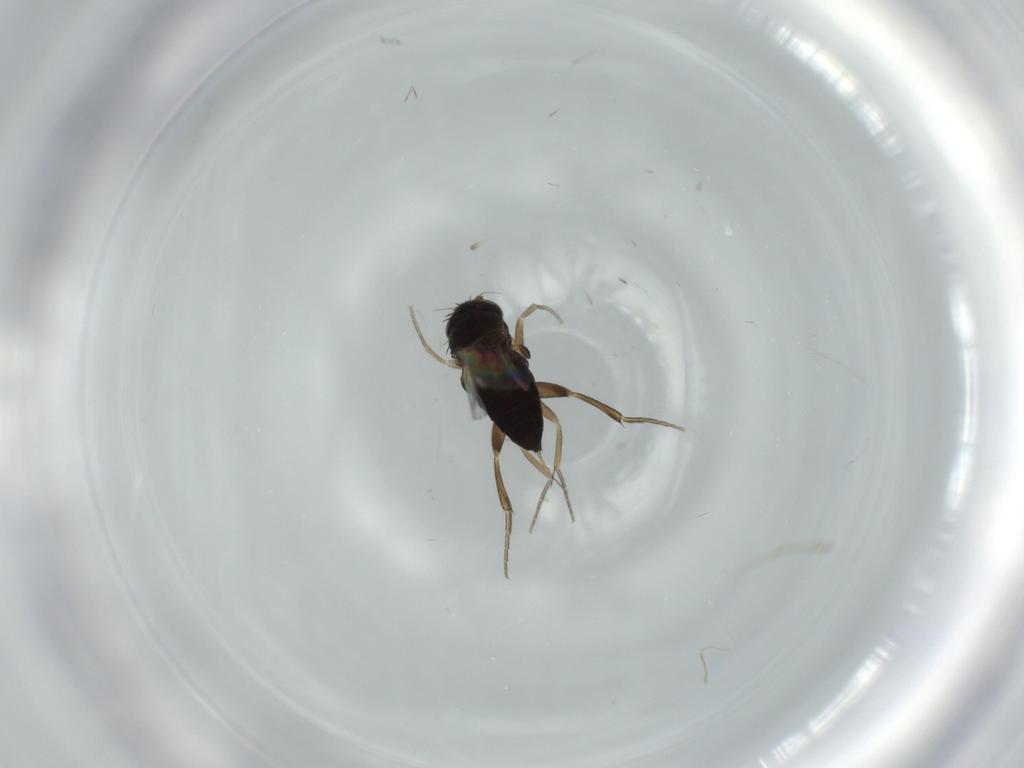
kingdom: Animalia
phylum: Arthropoda
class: Insecta
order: Diptera
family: Phoridae
